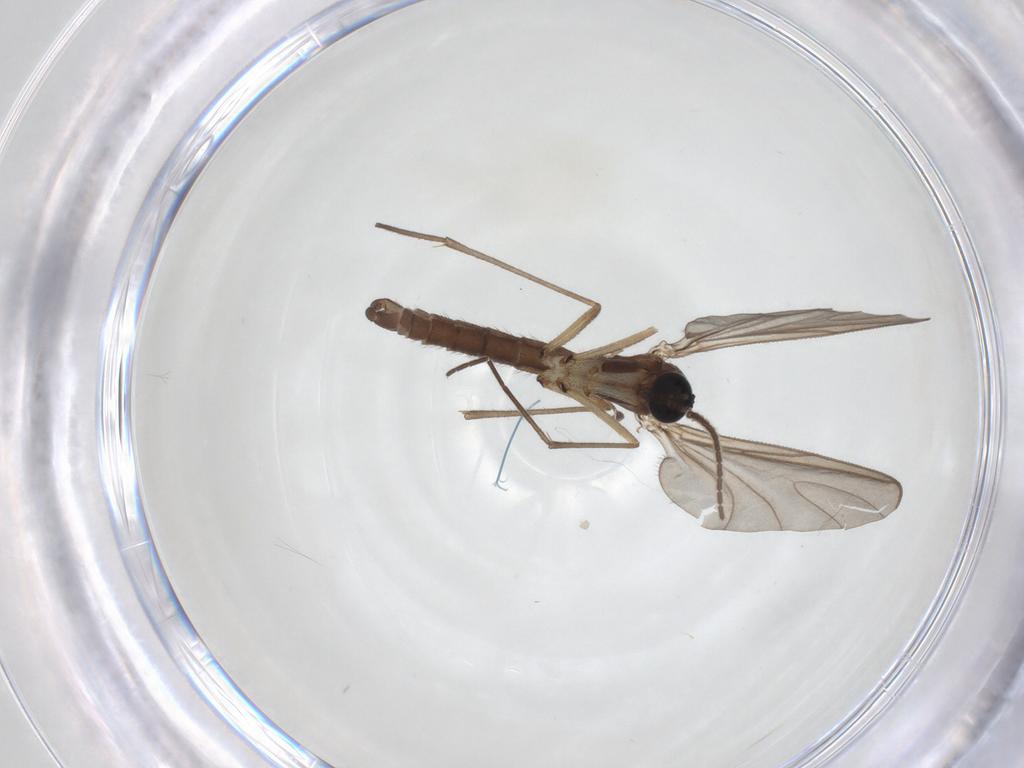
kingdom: Animalia
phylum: Arthropoda
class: Insecta
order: Diptera
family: Sciaridae
